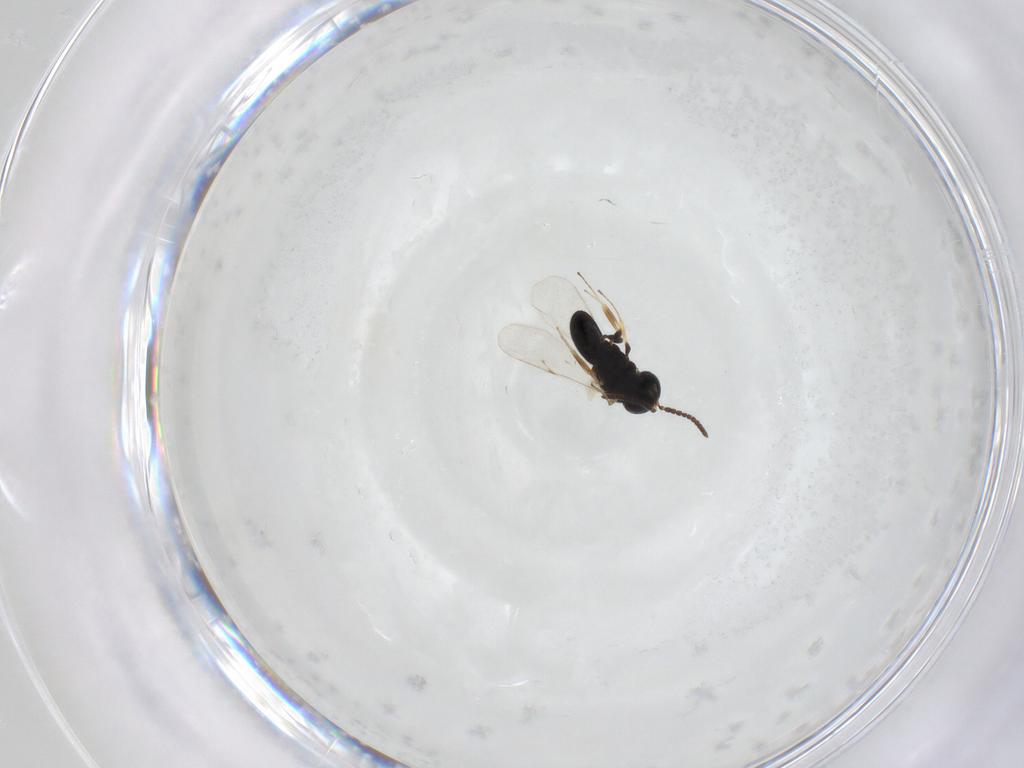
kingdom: Animalia
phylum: Arthropoda
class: Insecta
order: Hymenoptera
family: Scelionidae
